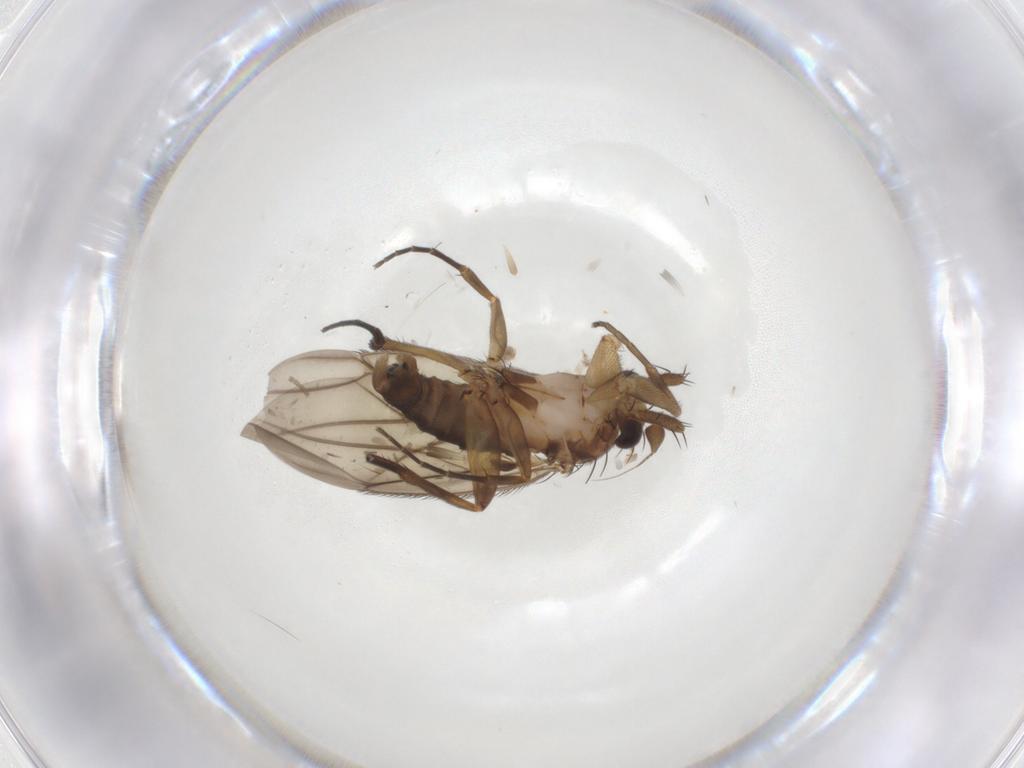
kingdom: Animalia
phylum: Arthropoda
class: Insecta
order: Diptera
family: Phoridae
